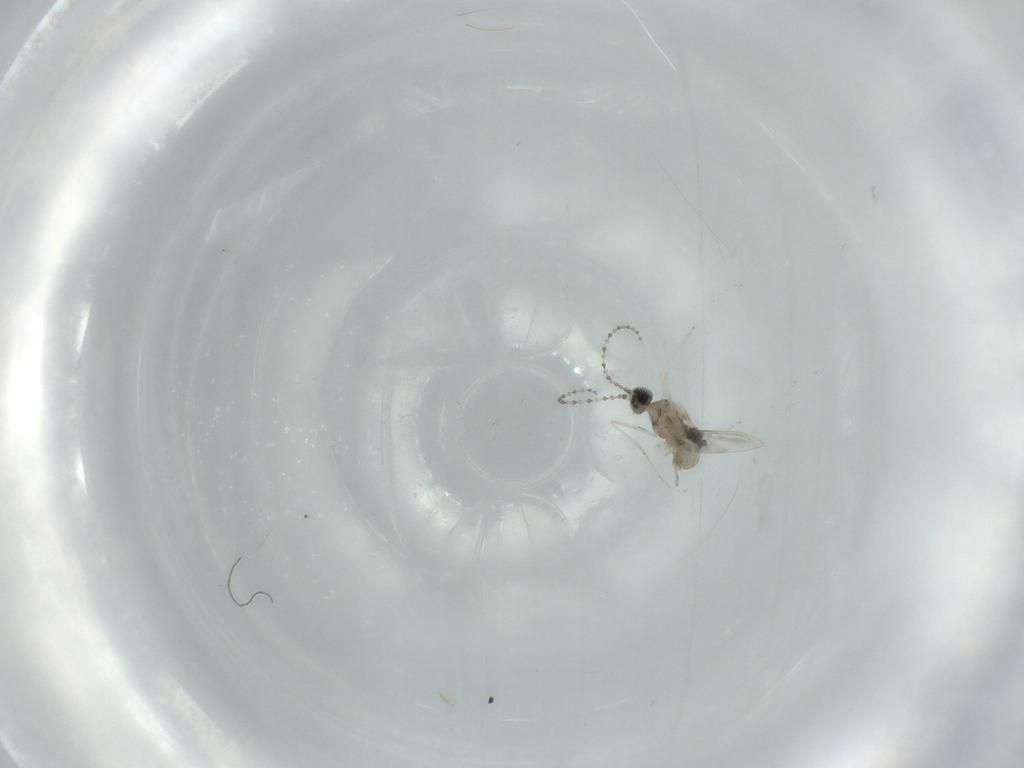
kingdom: Animalia
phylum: Arthropoda
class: Insecta
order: Diptera
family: Cecidomyiidae
